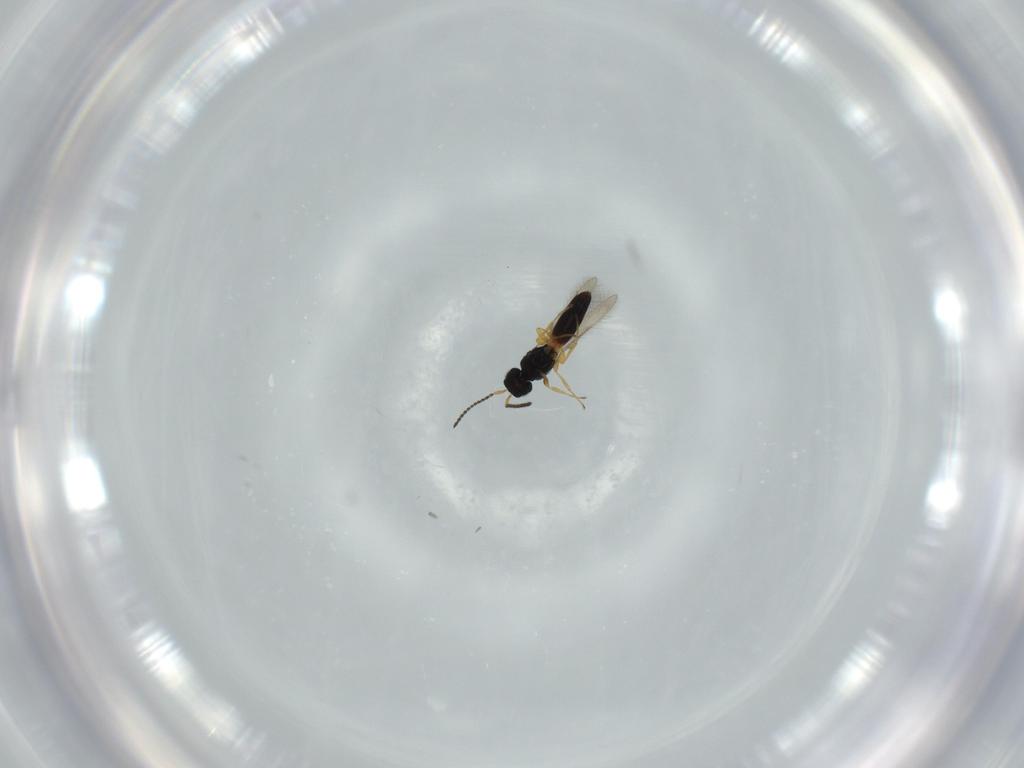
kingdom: Animalia
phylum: Arthropoda
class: Insecta
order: Hymenoptera
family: Scelionidae
